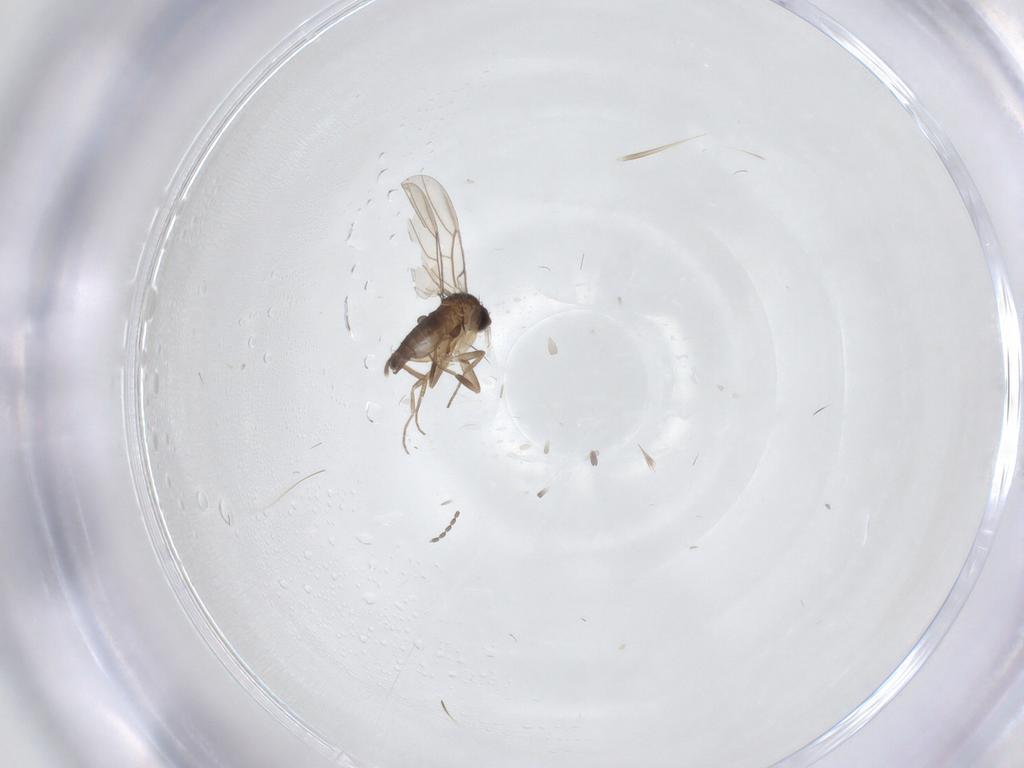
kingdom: Animalia
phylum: Arthropoda
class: Insecta
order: Diptera
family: Phoridae
